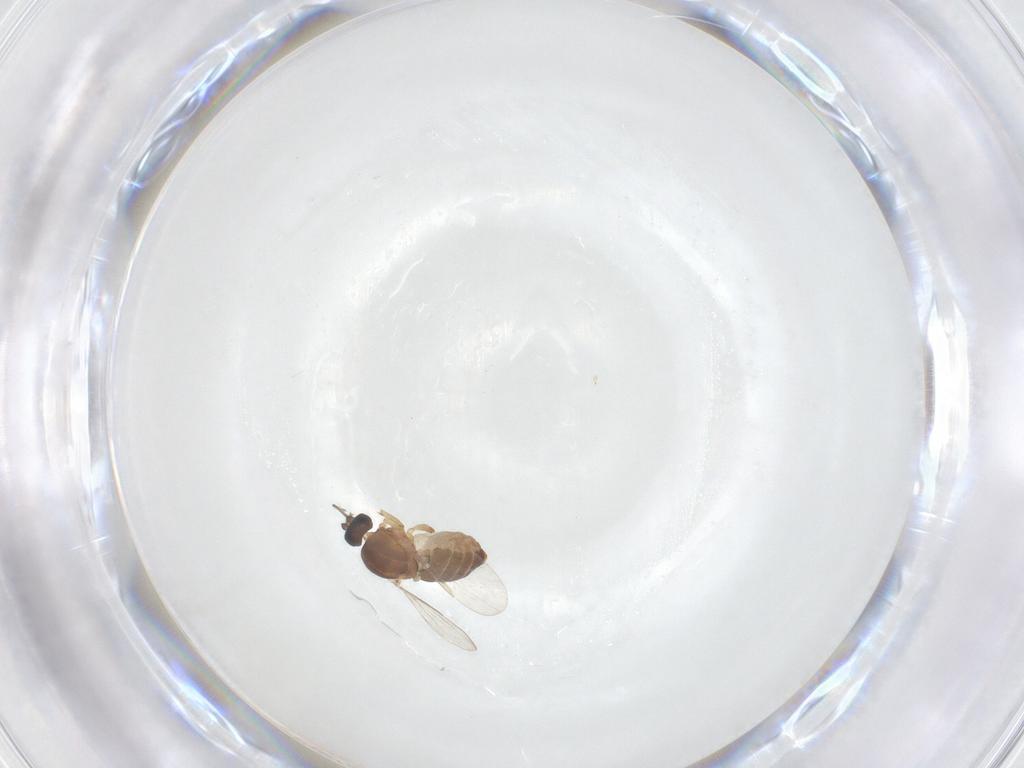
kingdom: Animalia
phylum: Arthropoda
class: Insecta
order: Diptera
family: Ceratopogonidae
